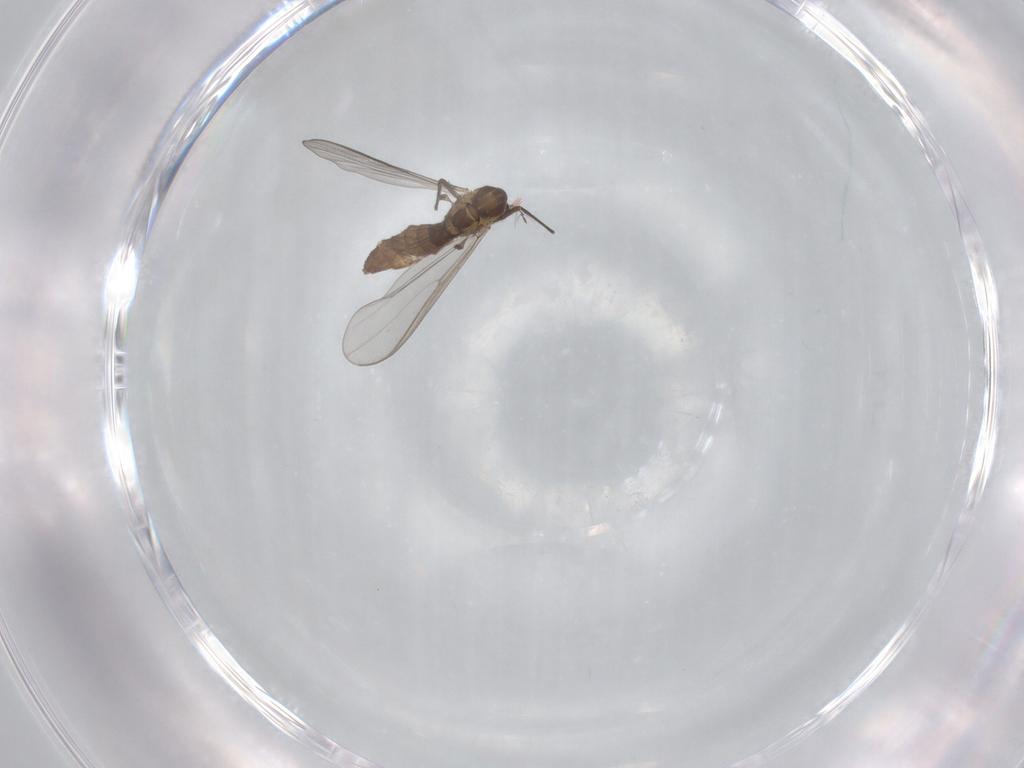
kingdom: Animalia
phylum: Arthropoda
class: Insecta
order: Diptera
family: Chironomidae
